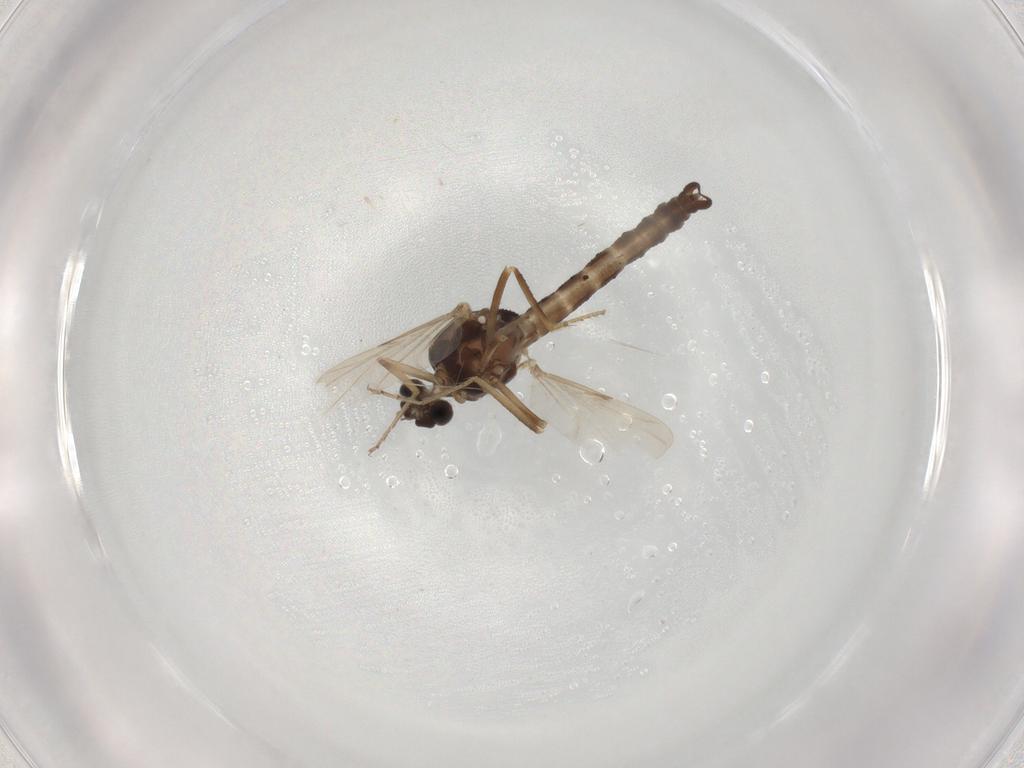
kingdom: Animalia
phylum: Arthropoda
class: Insecta
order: Diptera
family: Ceratopogonidae
